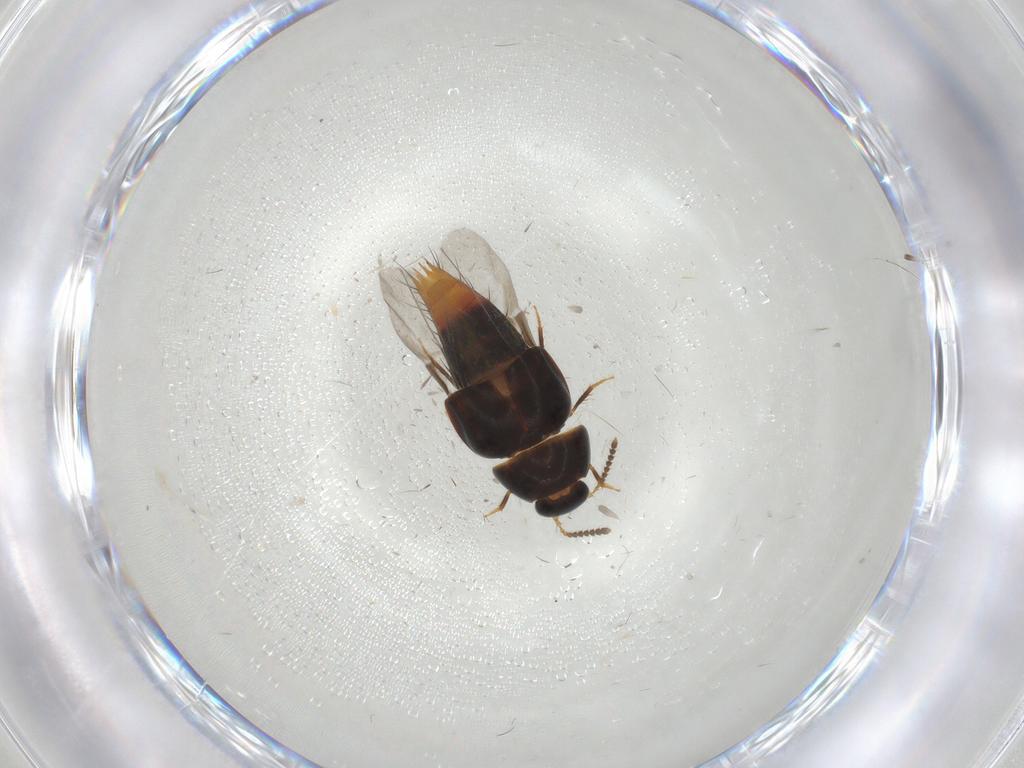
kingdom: Animalia
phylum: Arthropoda
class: Insecta
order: Coleoptera
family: Staphylinidae
